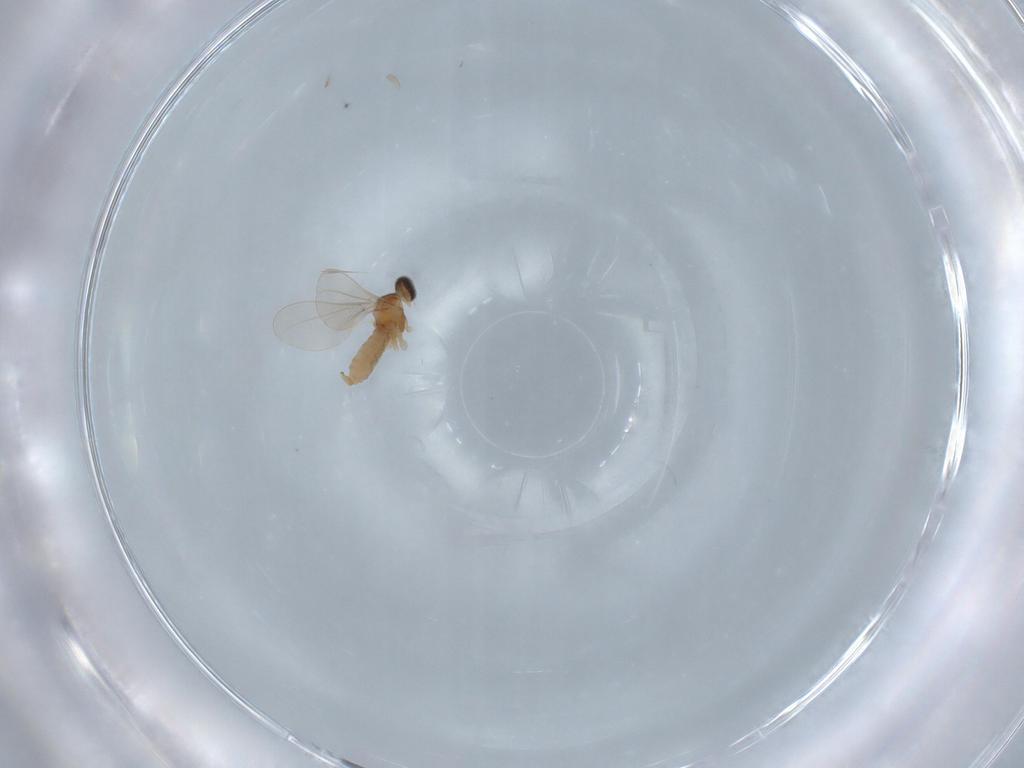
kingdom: Animalia
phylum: Arthropoda
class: Insecta
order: Diptera
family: Cecidomyiidae
